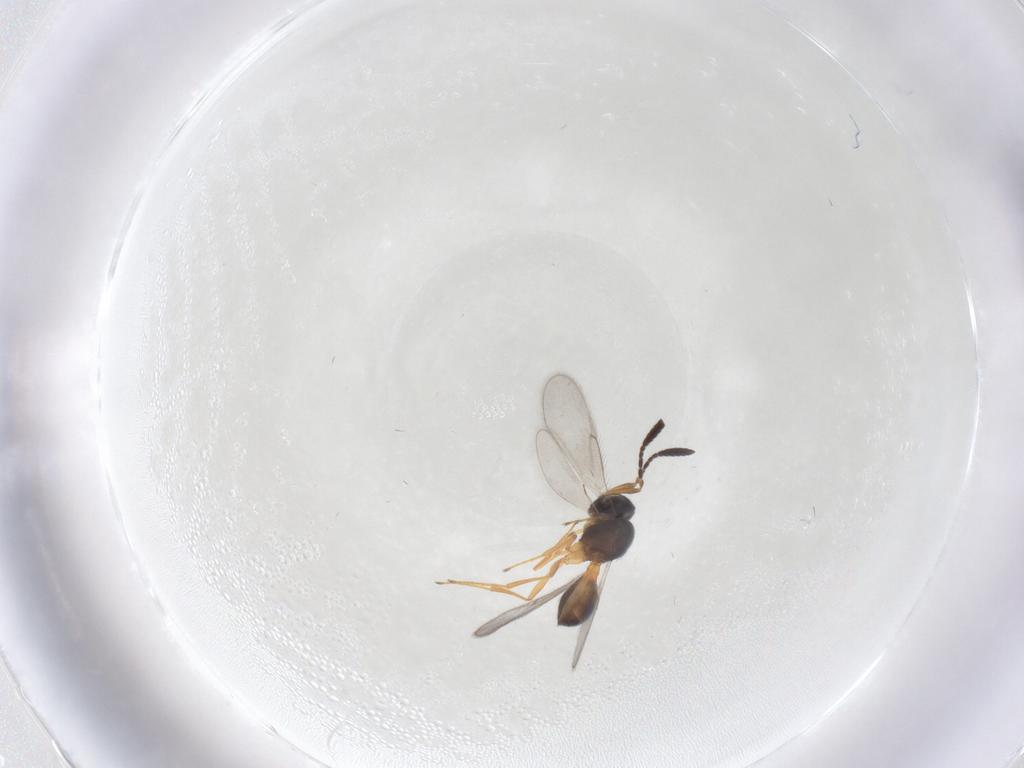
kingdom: Animalia
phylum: Arthropoda
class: Insecta
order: Hymenoptera
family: Scelionidae
